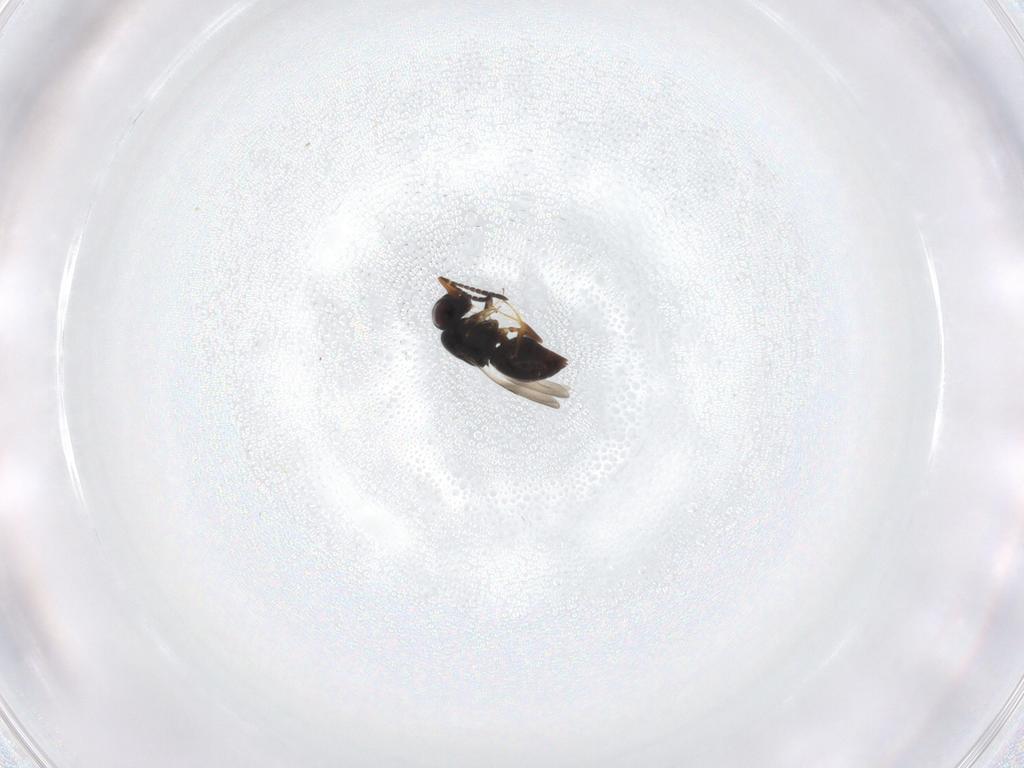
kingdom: Animalia
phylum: Arthropoda
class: Insecta
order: Hymenoptera
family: Ceraphronidae
